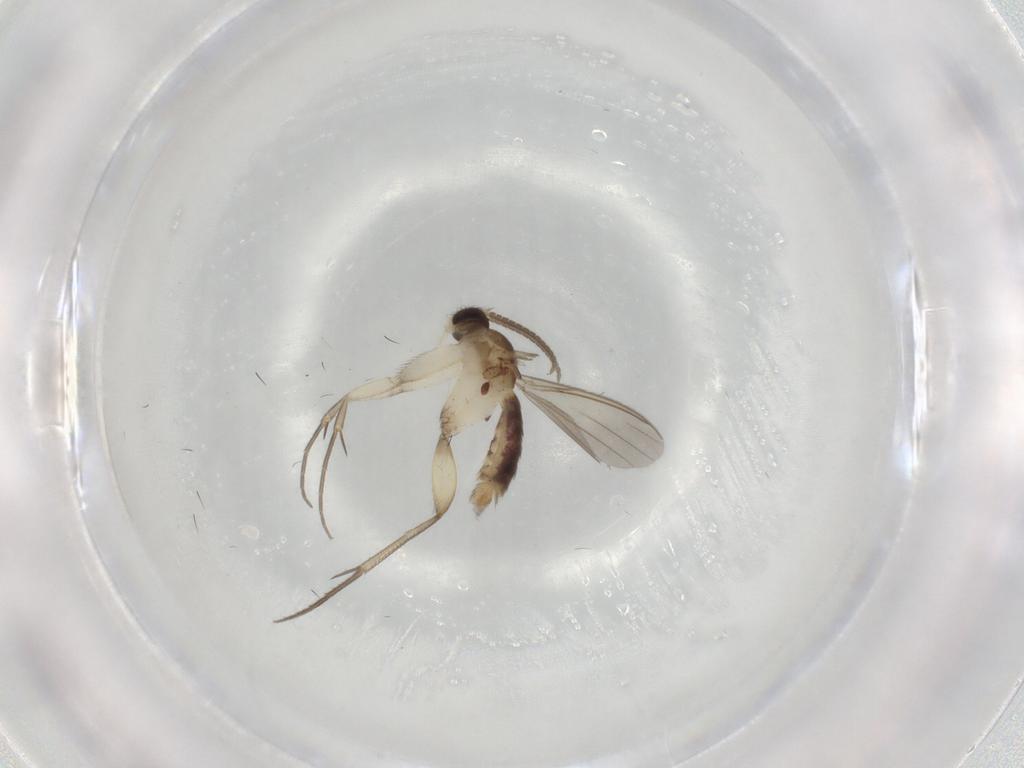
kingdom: Animalia
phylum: Arthropoda
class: Insecta
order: Diptera
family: Mycetophilidae
